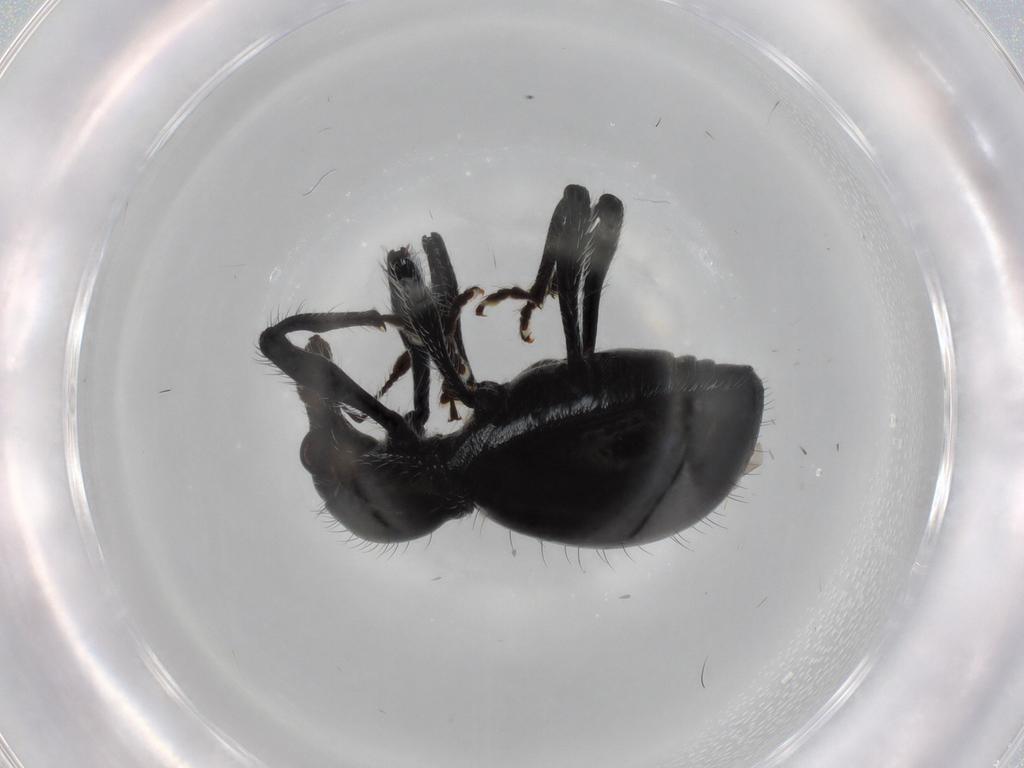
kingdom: Animalia
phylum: Arthropoda
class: Insecta
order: Coleoptera
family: Curculionidae
